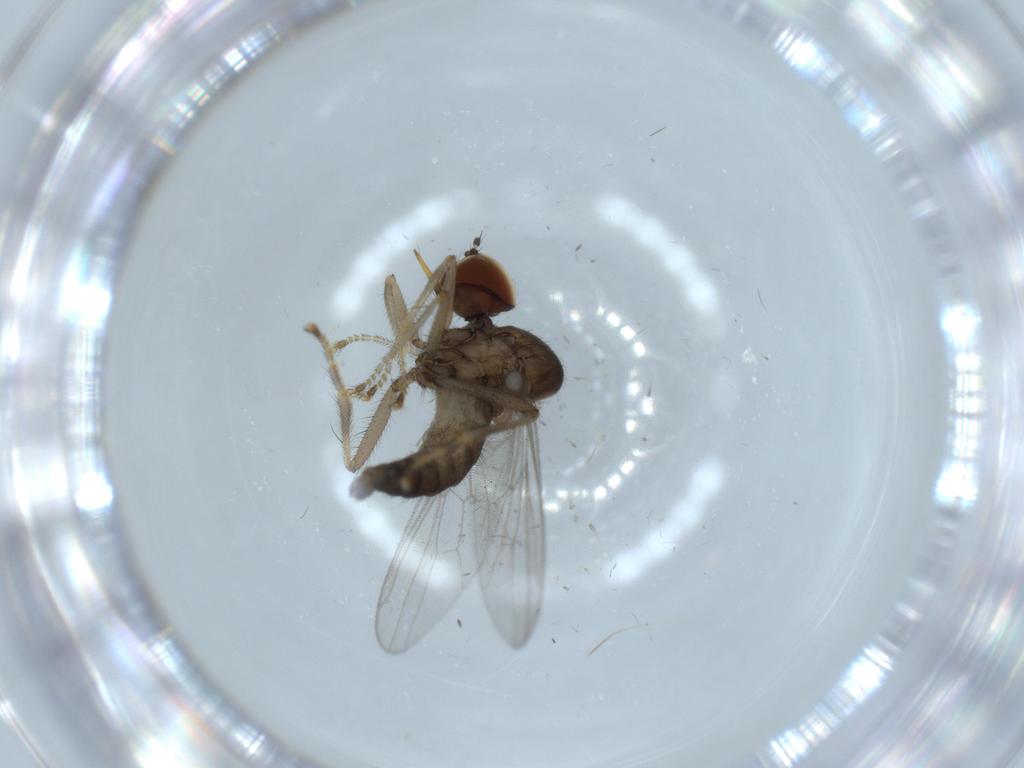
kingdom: Animalia
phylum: Arthropoda
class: Insecta
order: Diptera
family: Hybotidae
